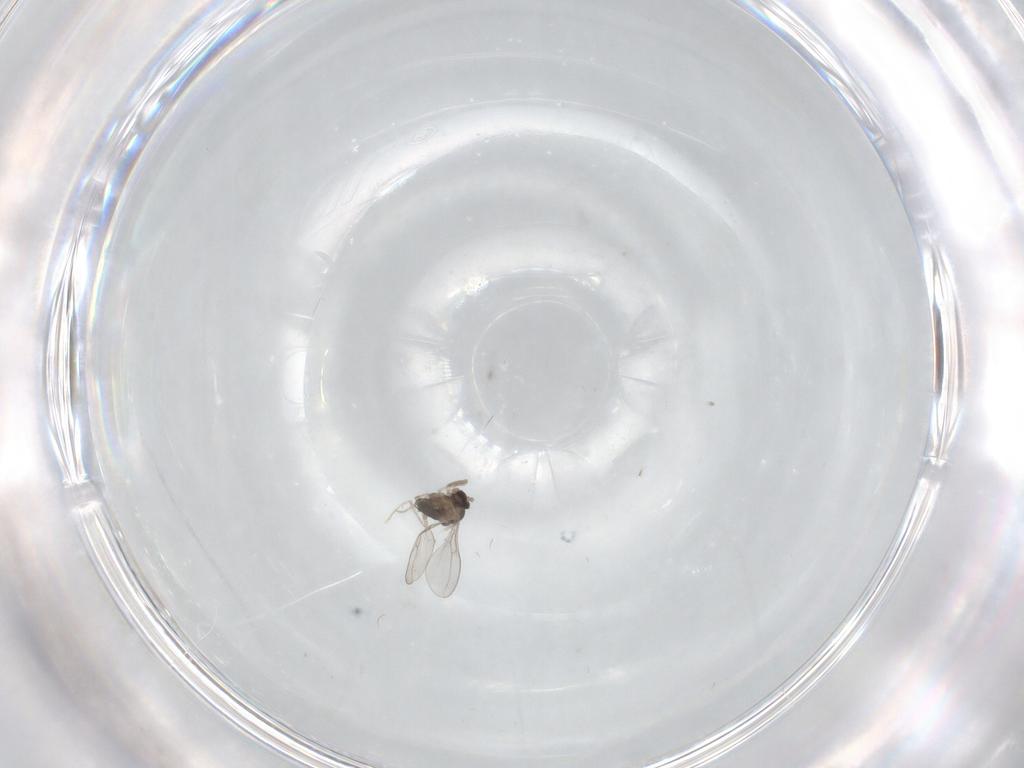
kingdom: Animalia
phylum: Arthropoda
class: Insecta
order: Diptera
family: Cecidomyiidae
